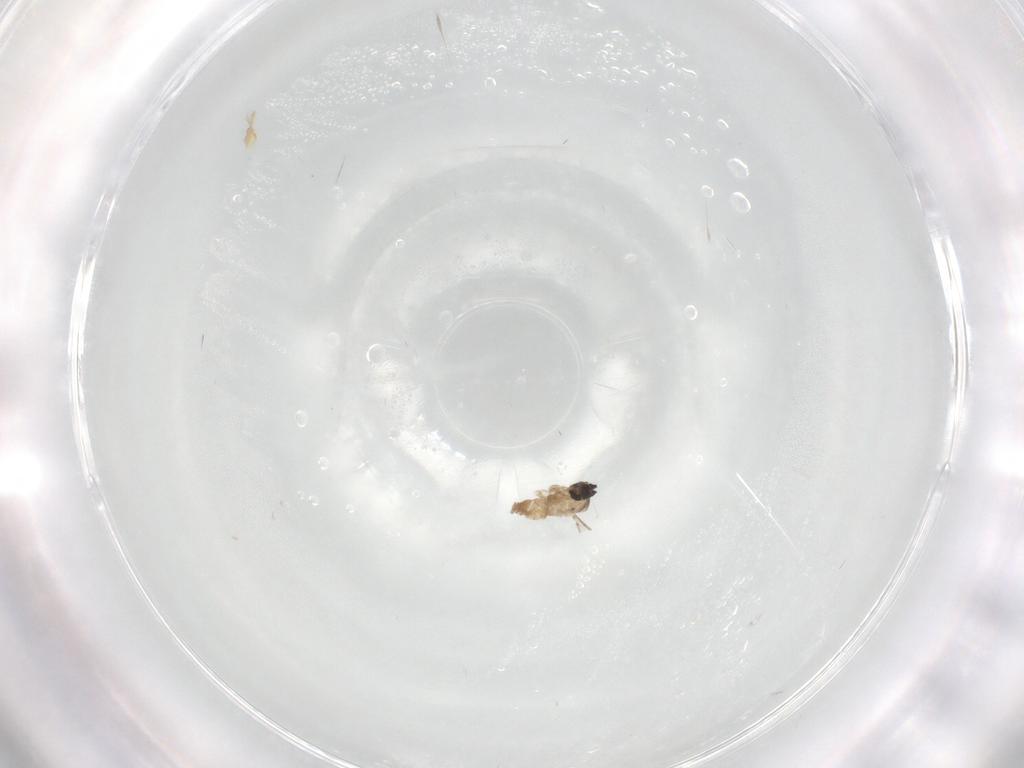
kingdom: Animalia
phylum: Arthropoda
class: Insecta
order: Diptera
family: Cecidomyiidae
